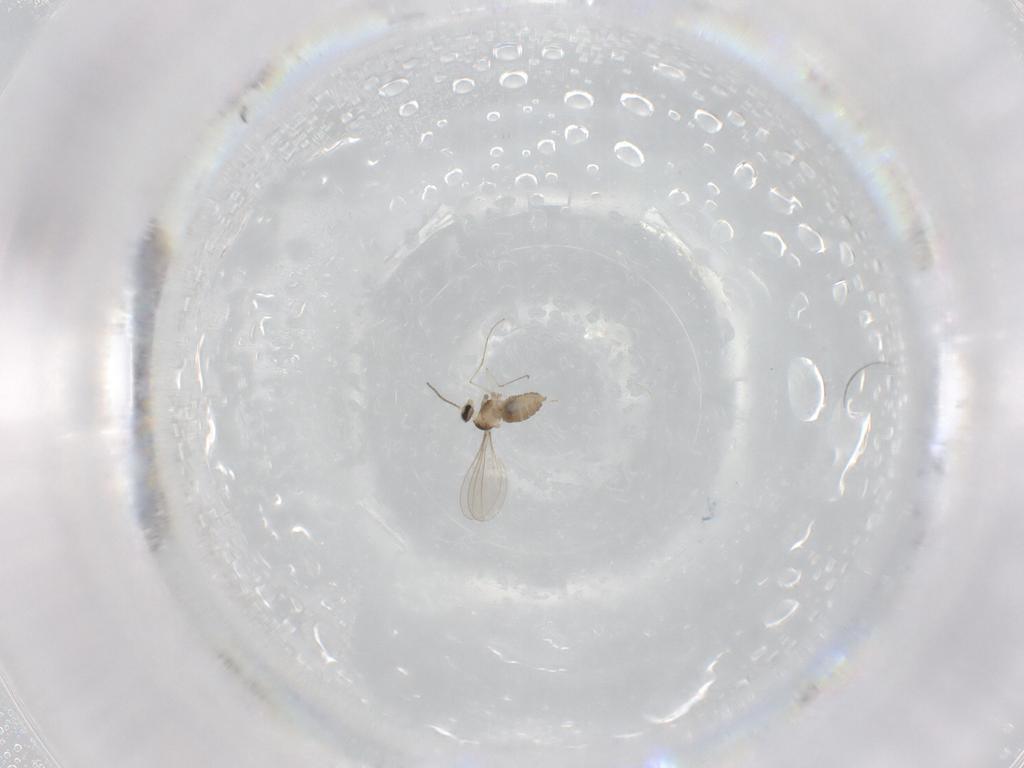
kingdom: Animalia
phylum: Arthropoda
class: Insecta
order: Diptera
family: Cecidomyiidae
